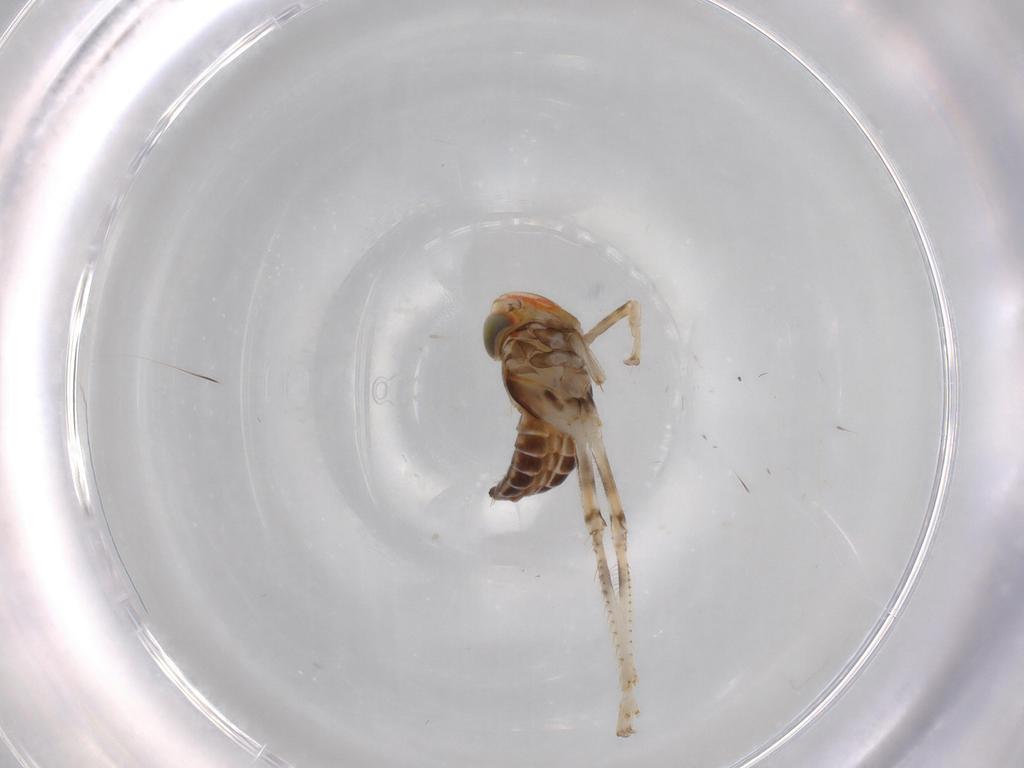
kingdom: Animalia
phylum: Arthropoda
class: Insecta
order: Hemiptera
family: Cicadellidae
